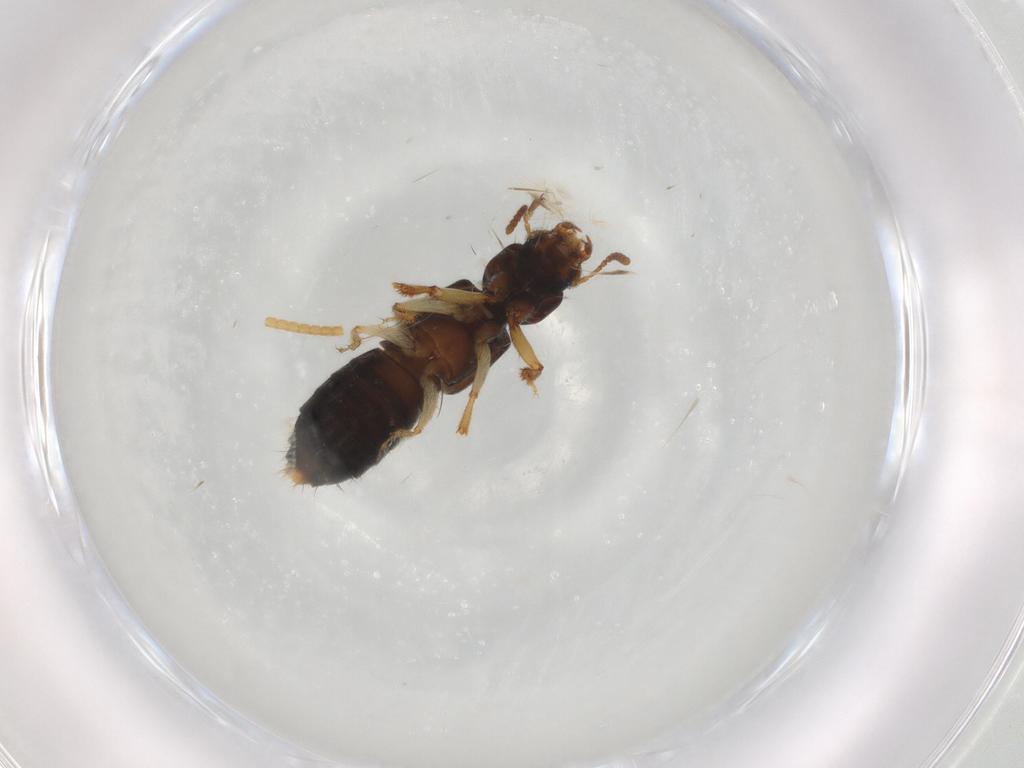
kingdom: Animalia
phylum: Arthropoda
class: Insecta
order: Coleoptera
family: Staphylinidae
